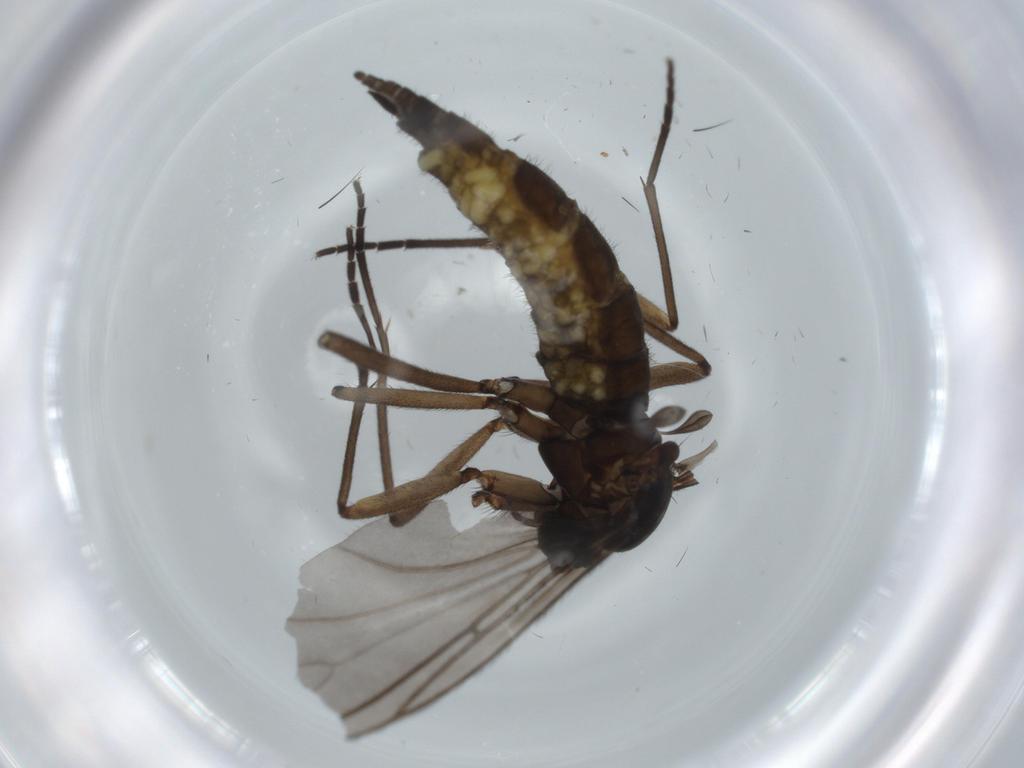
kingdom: Animalia
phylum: Arthropoda
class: Insecta
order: Diptera
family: Sciaridae
